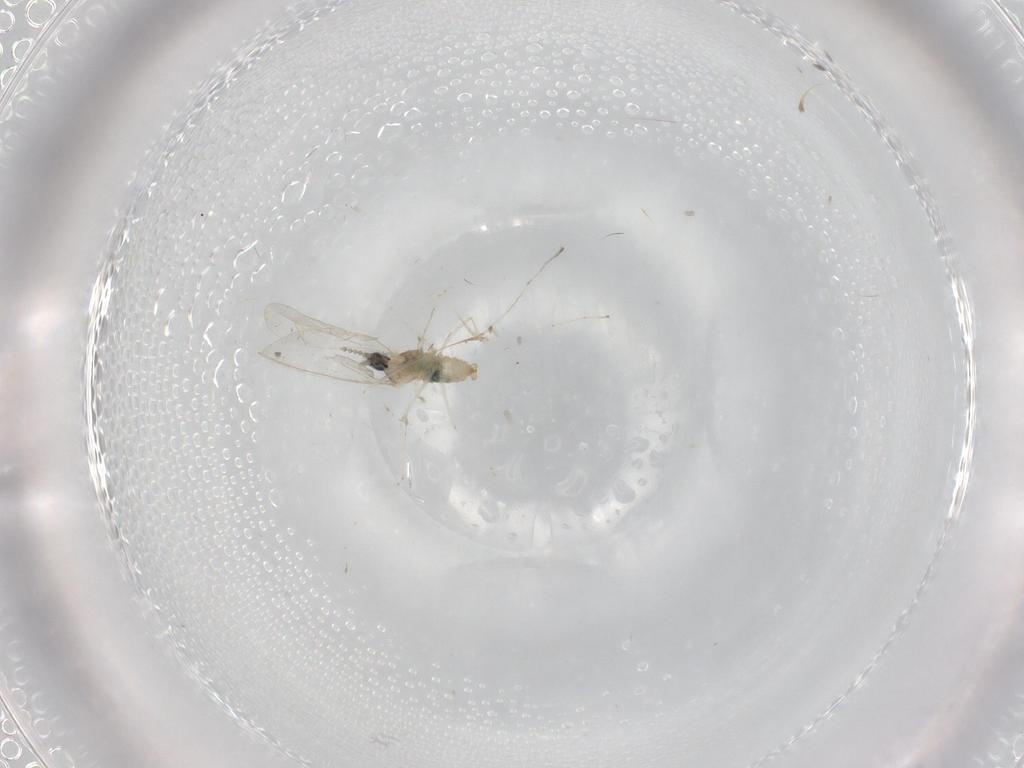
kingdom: Animalia
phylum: Arthropoda
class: Insecta
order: Diptera
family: Cecidomyiidae
